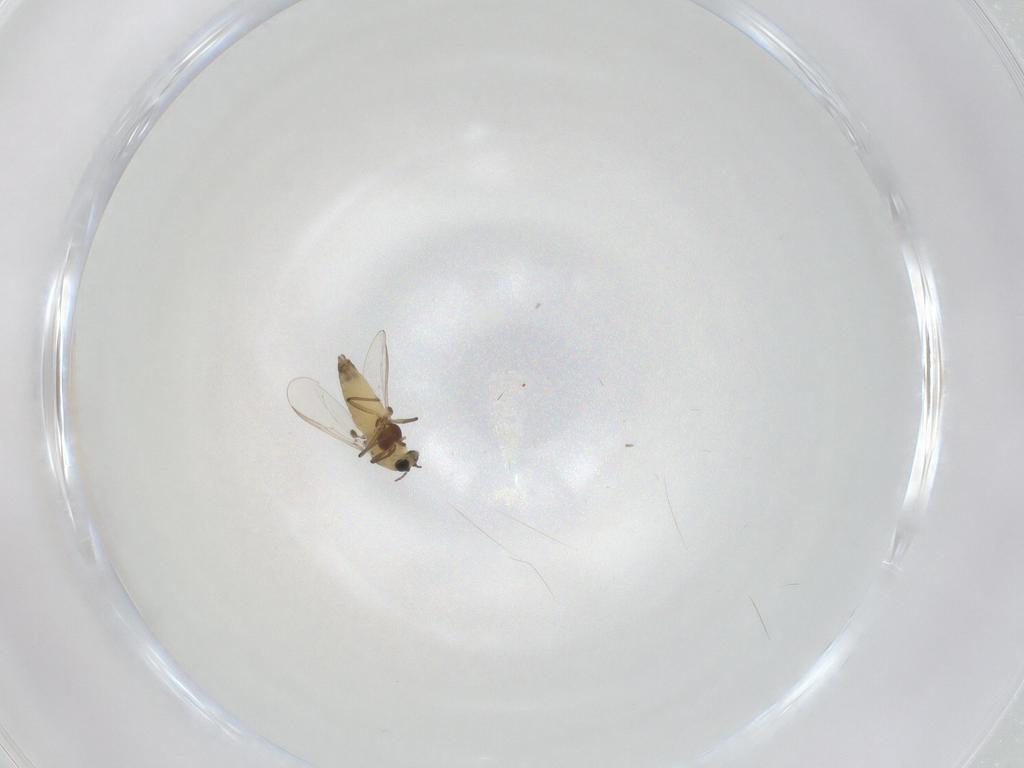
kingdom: Animalia
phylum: Arthropoda
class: Insecta
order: Diptera
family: Chironomidae
